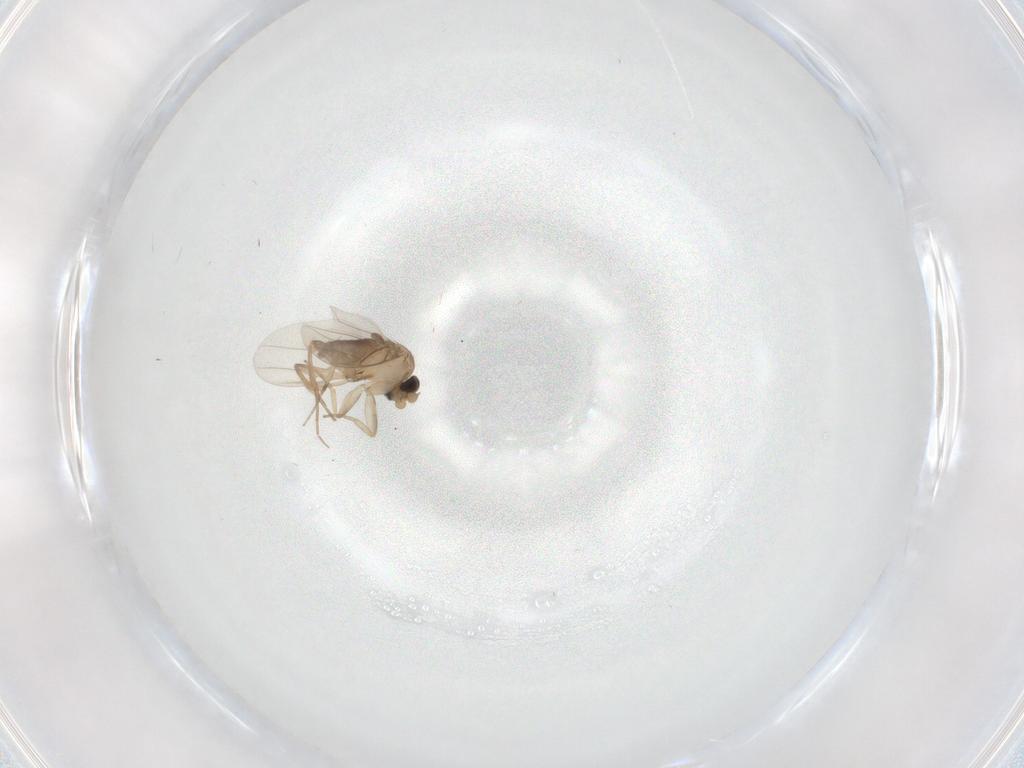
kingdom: Animalia
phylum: Arthropoda
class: Insecta
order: Diptera
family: Phoridae
